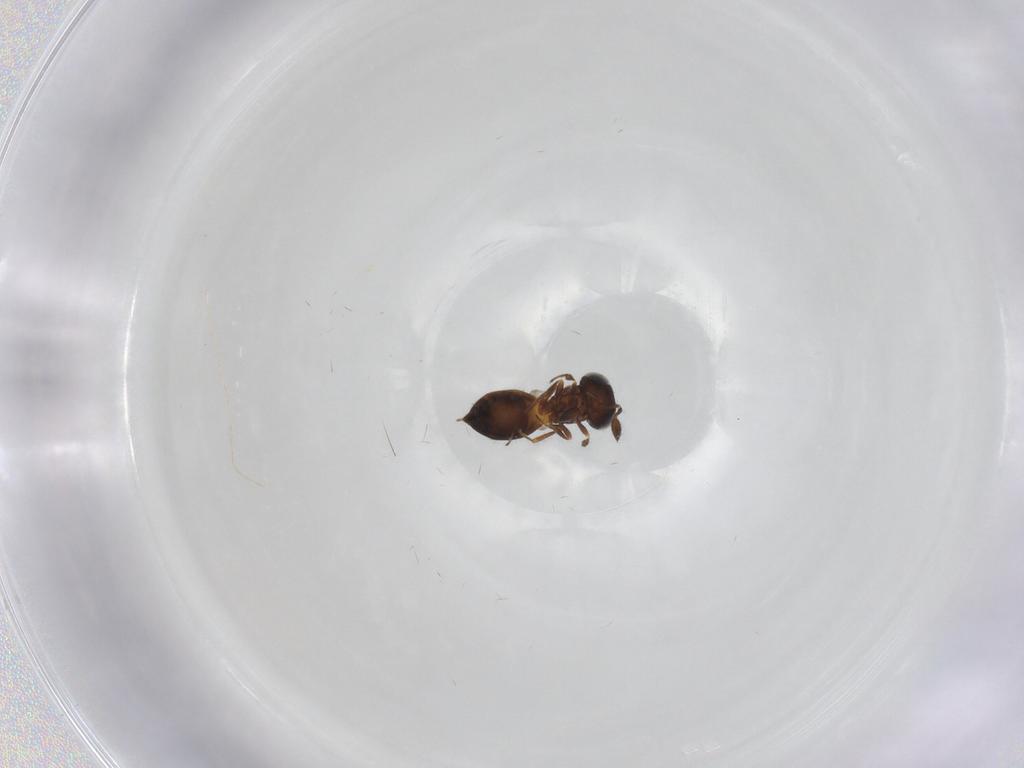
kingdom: Animalia
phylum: Arthropoda
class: Insecta
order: Hymenoptera
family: Scelionidae
